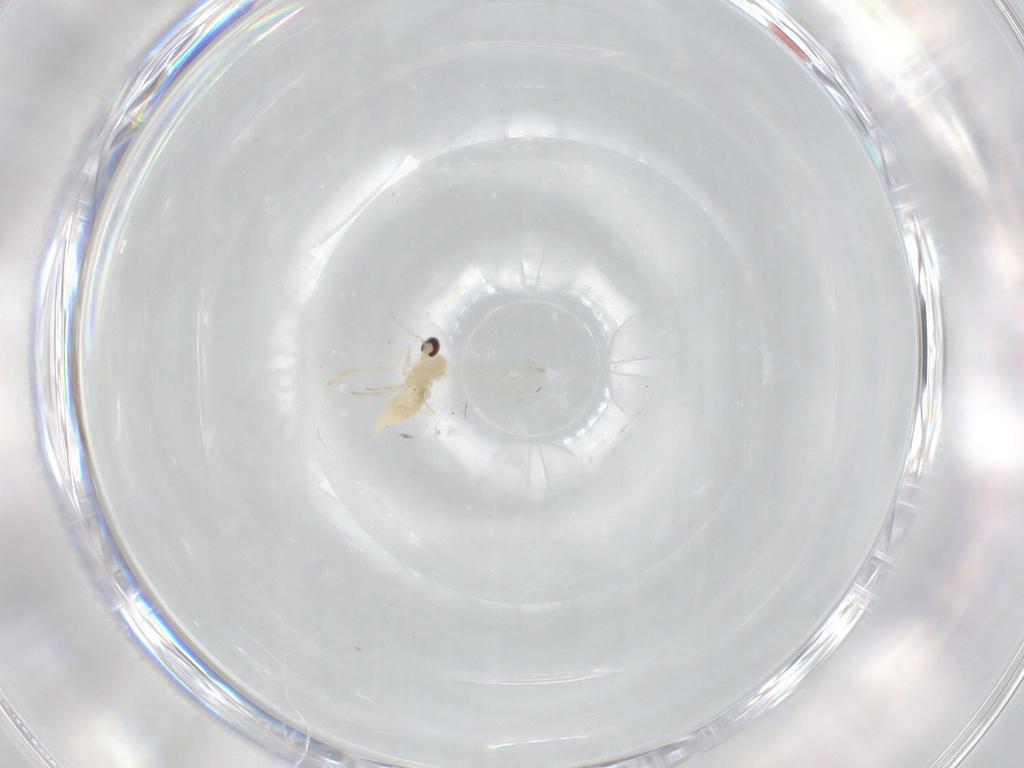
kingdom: Animalia
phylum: Arthropoda
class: Insecta
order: Diptera
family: Cecidomyiidae
